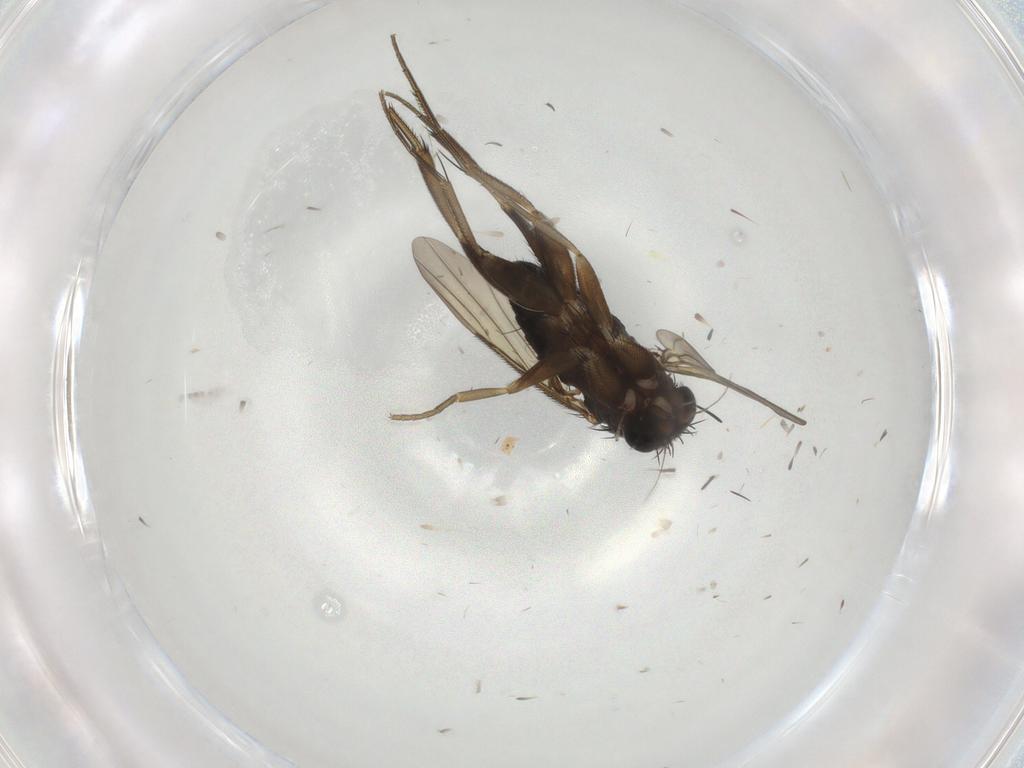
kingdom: Animalia
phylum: Arthropoda
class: Insecta
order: Diptera
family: Phoridae
